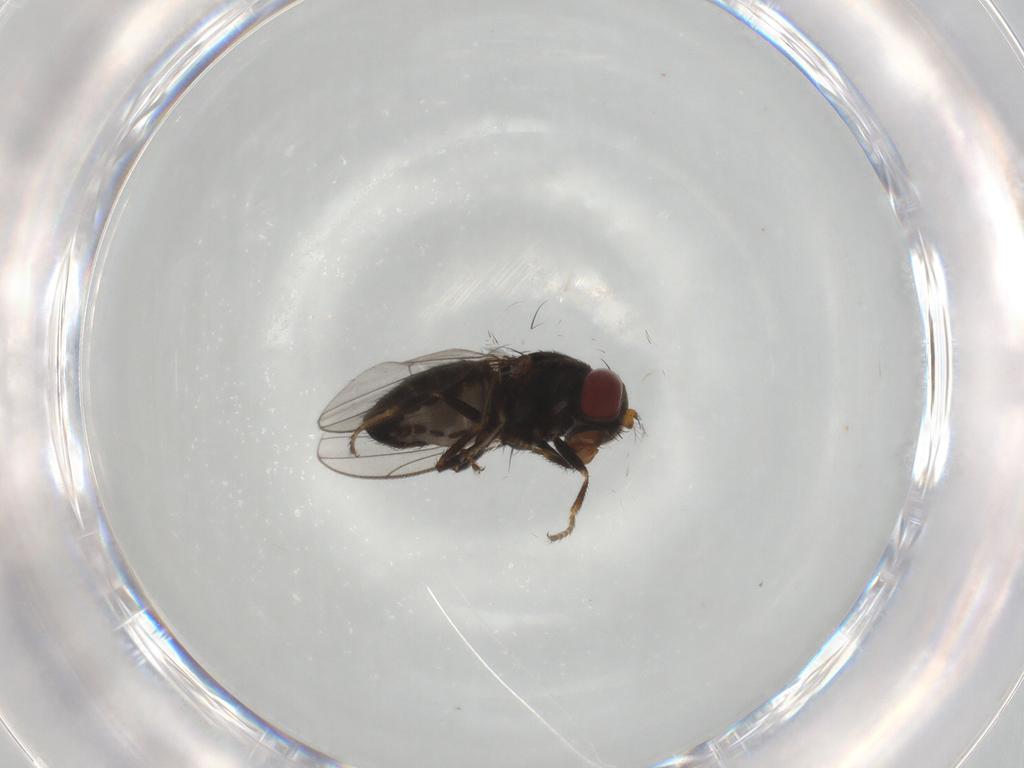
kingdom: Animalia
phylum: Arthropoda
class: Insecta
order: Diptera
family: Ephydridae
